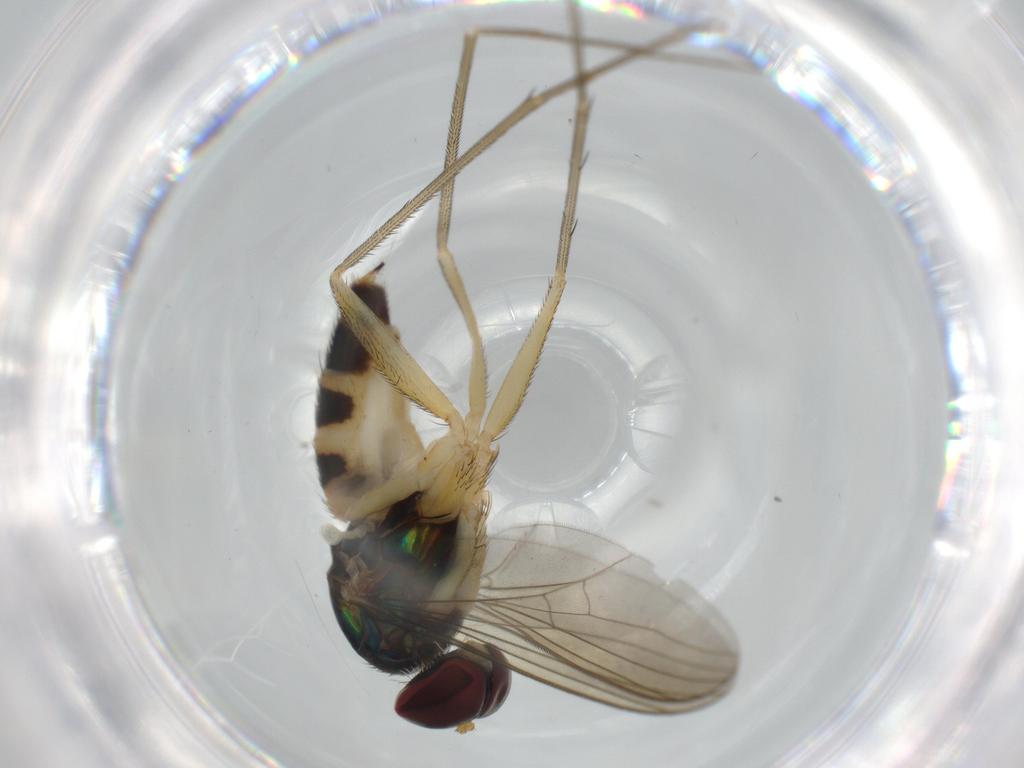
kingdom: Animalia
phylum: Arthropoda
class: Insecta
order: Diptera
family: Dolichopodidae
